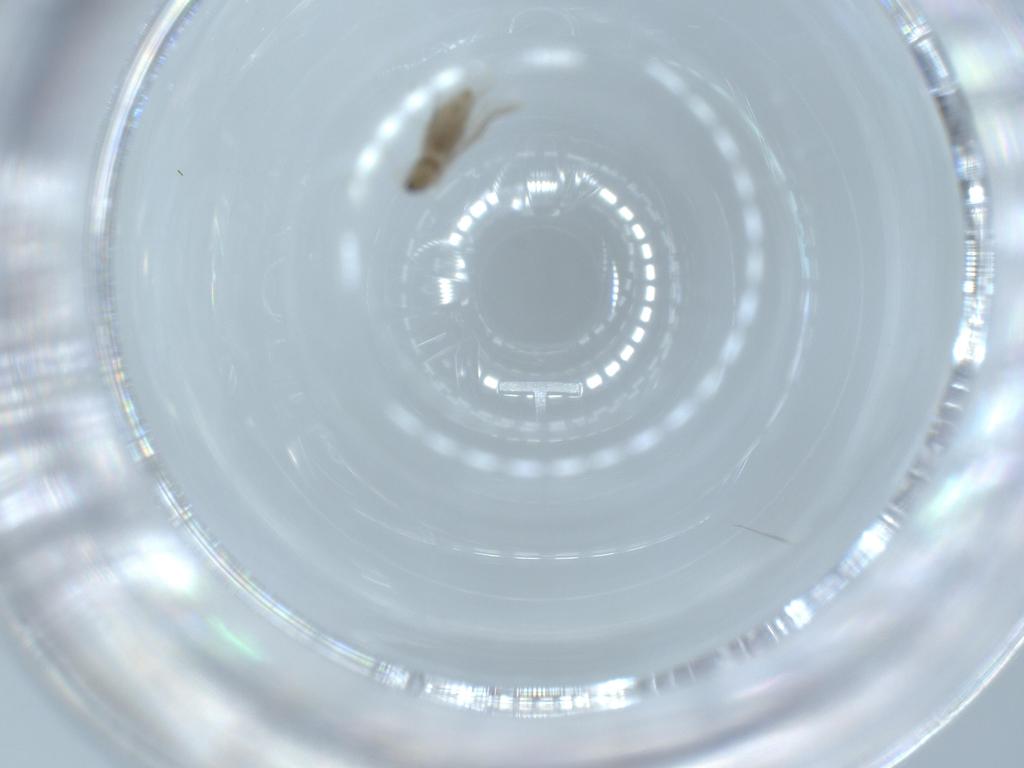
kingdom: Animalia
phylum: Arthropoda
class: Insecta
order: Diptera
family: Cecidomyiidae
